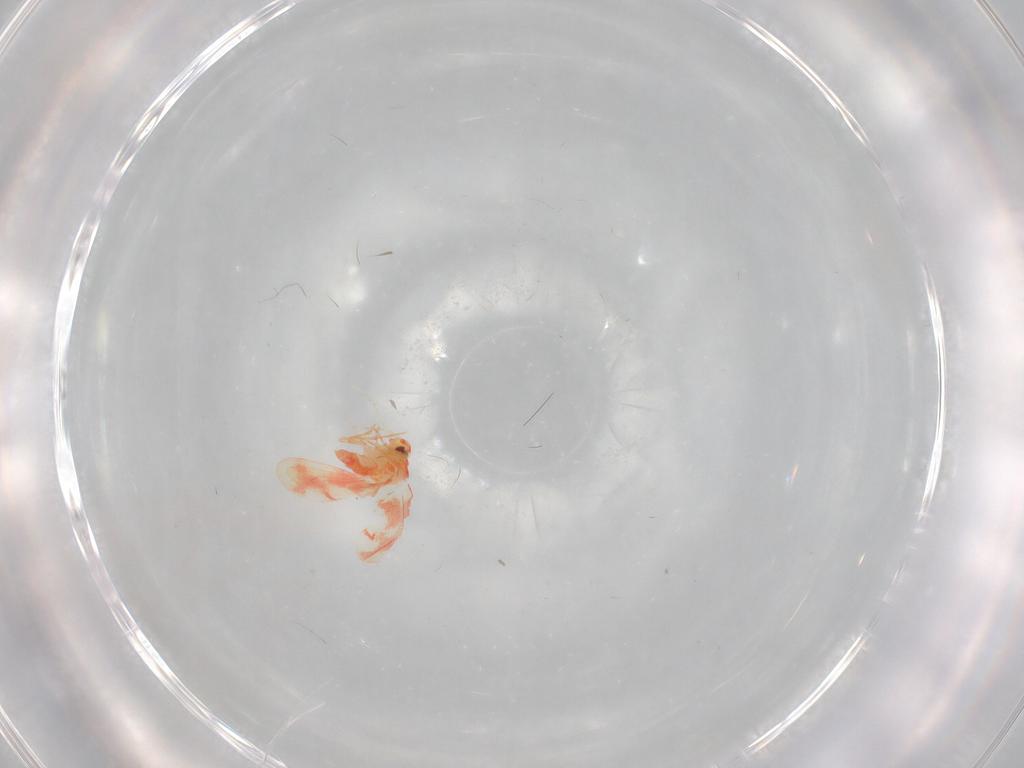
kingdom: Animalia
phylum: Arthropoda
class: Insecta
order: Hemiptera
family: Aleyrodidae
